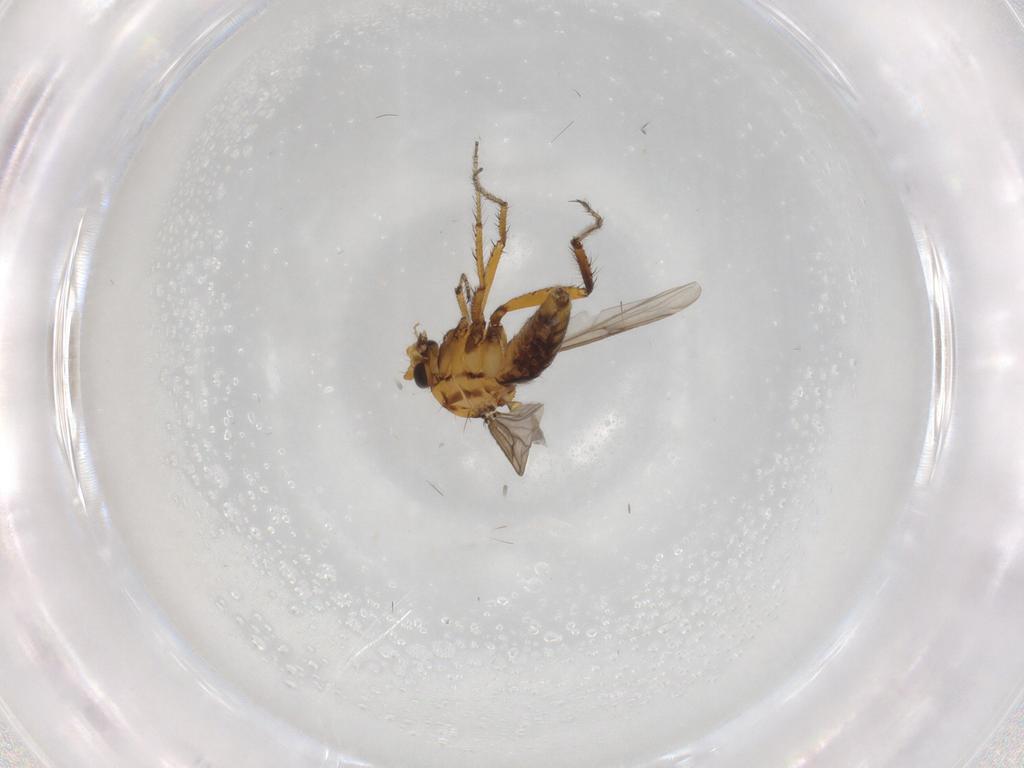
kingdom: Animalia
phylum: Arthropoda
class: Insecta
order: Diptera
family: Ceratopogonidae
